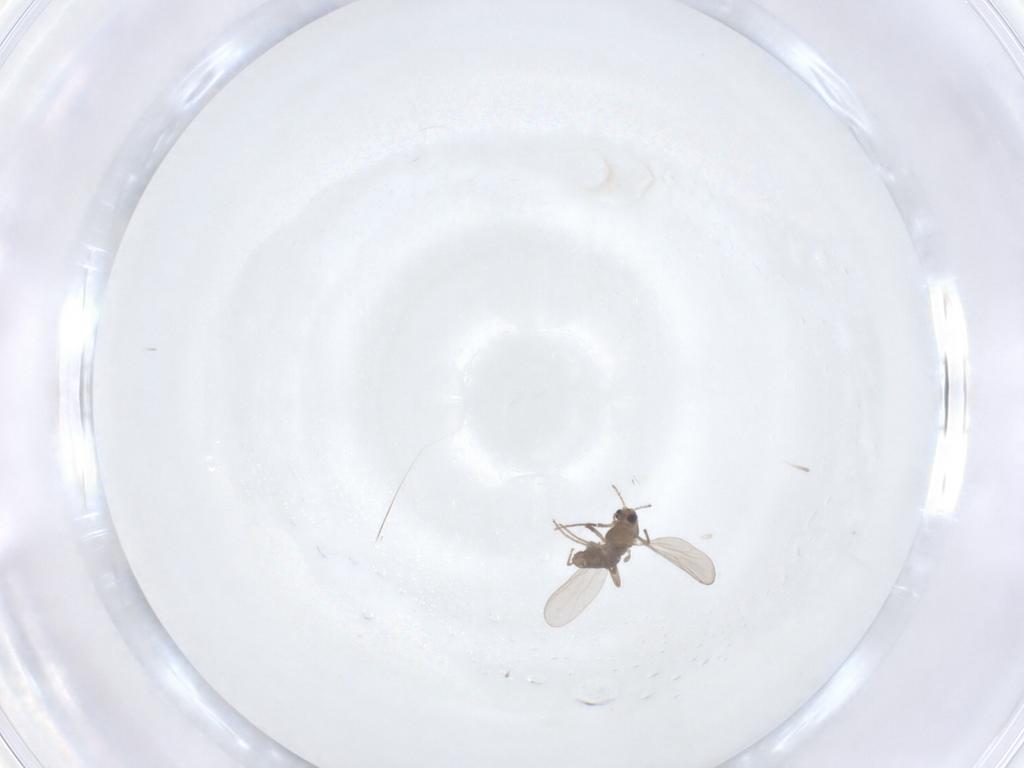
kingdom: Animalia
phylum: Arthropoda
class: Insecta
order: Diptera
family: Chironomidae
